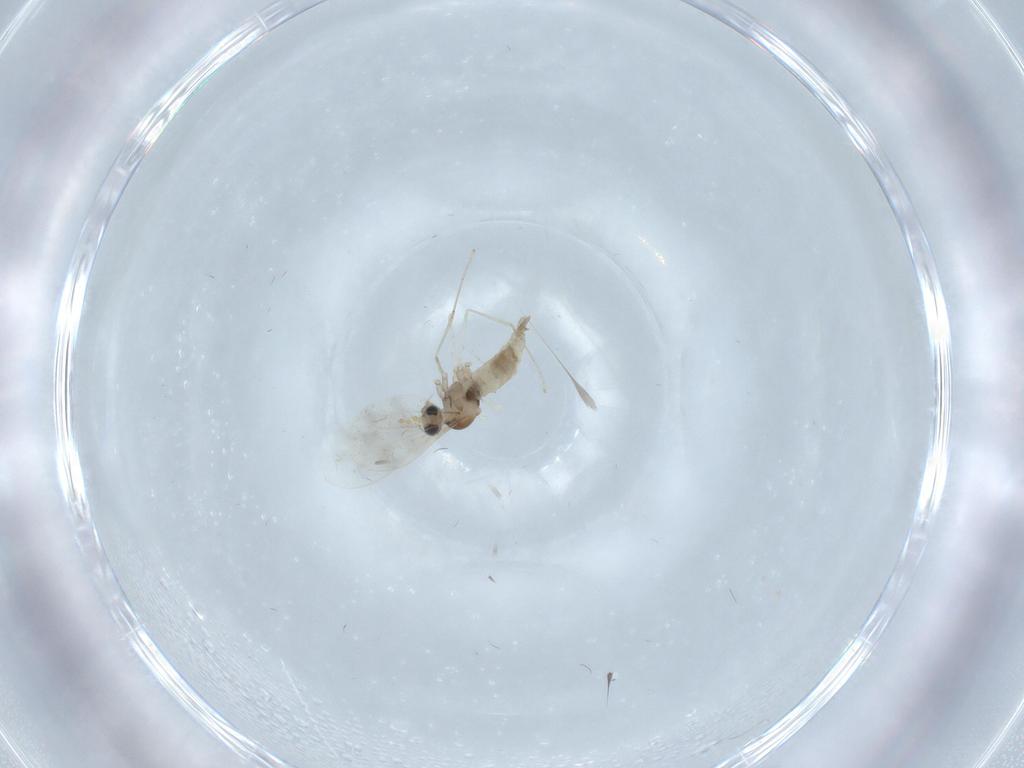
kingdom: Animalia
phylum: Arthropoda
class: Insecta
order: Diptera
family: Cecidomyiidae
